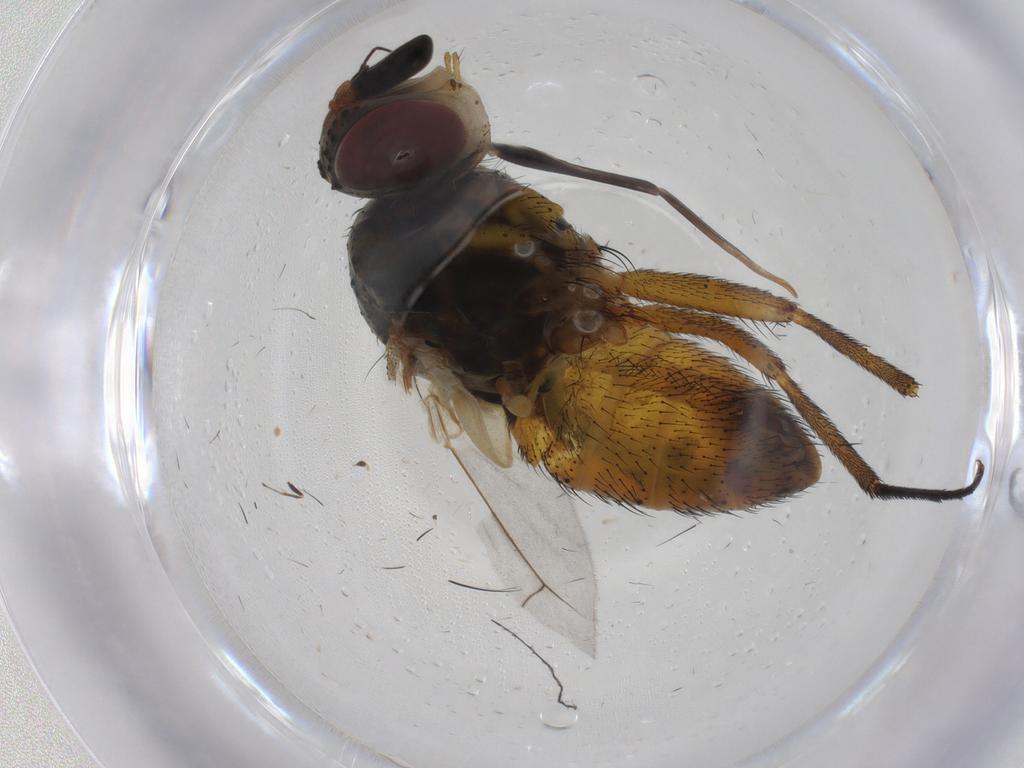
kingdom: Animalia
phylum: Arthropoda
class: Insecta
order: Diptera
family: Tachinidae
